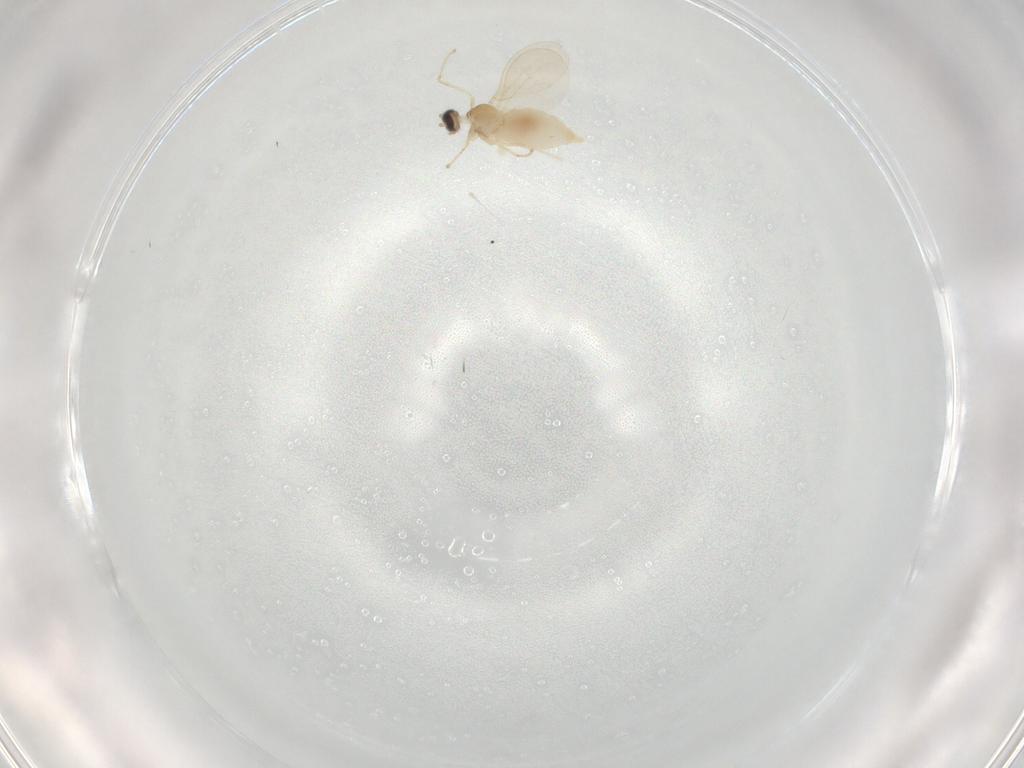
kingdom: Animalia
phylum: Arthropoda
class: Insecta
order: Diptera
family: Cecidomyiidae
